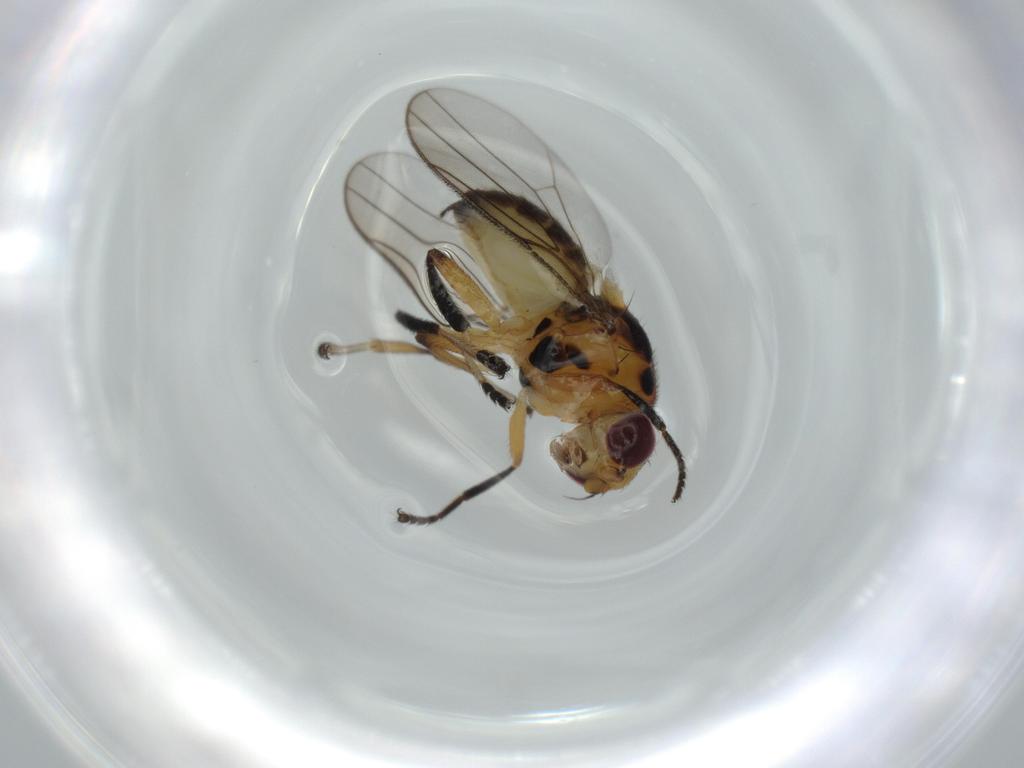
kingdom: Animalia
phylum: Arthropoda
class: Insecta
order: Diptera
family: Chloropidae
